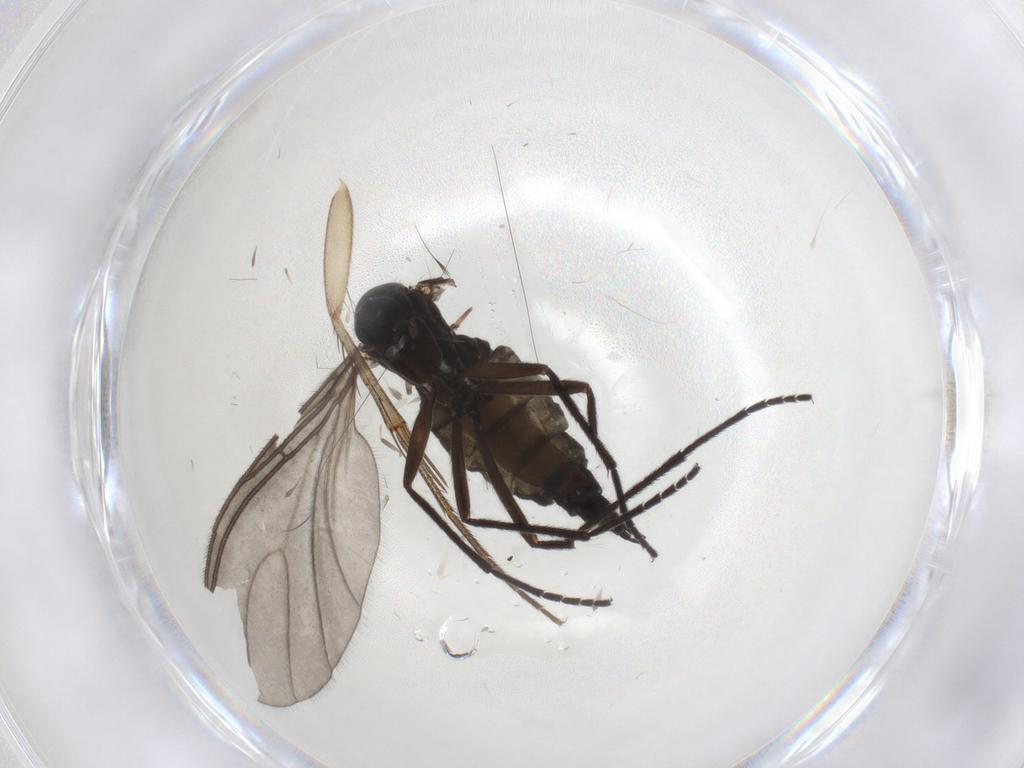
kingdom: Animalia
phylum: Arthropoda
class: Insecta
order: Diptera
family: Sciaridae
